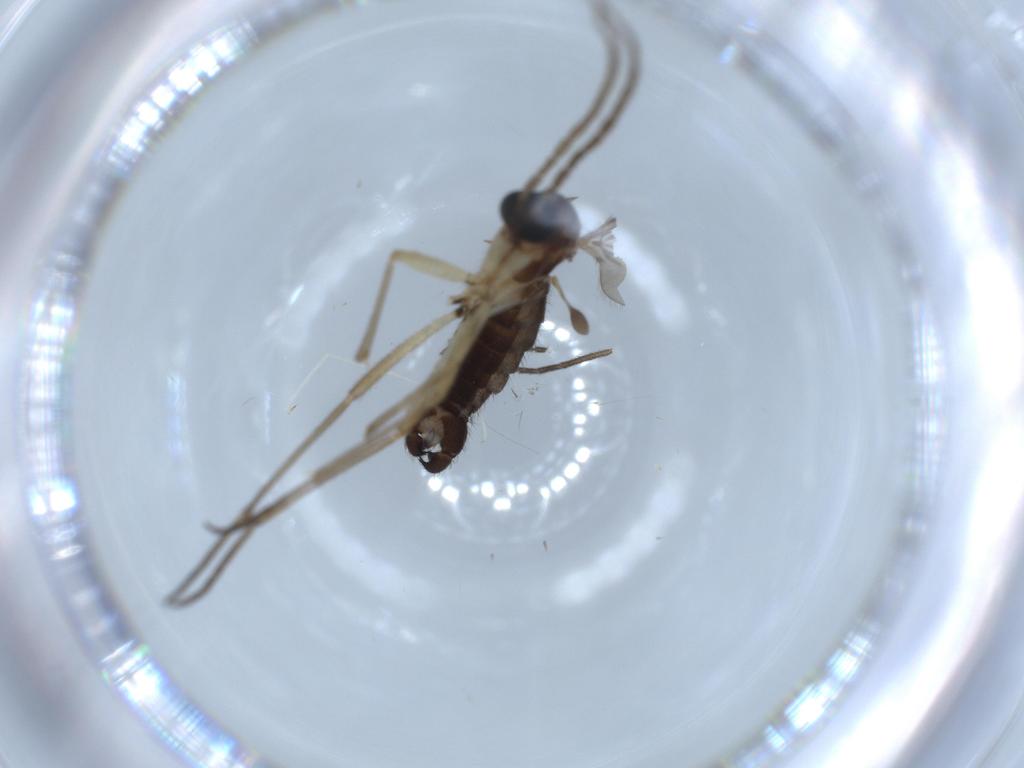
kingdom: Animalia
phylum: Arthropoda
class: Insecta
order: Diptera
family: Sciaridae
